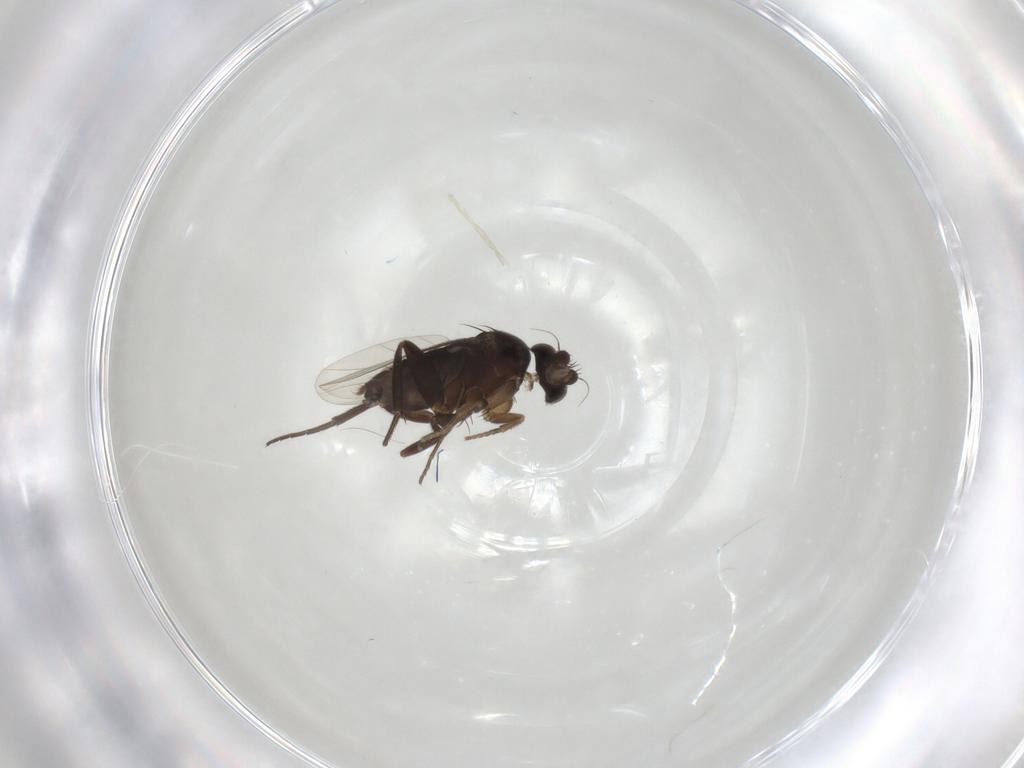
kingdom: Animalia
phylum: Arthropoda
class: Insecta
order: Diptera
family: Phoridae
